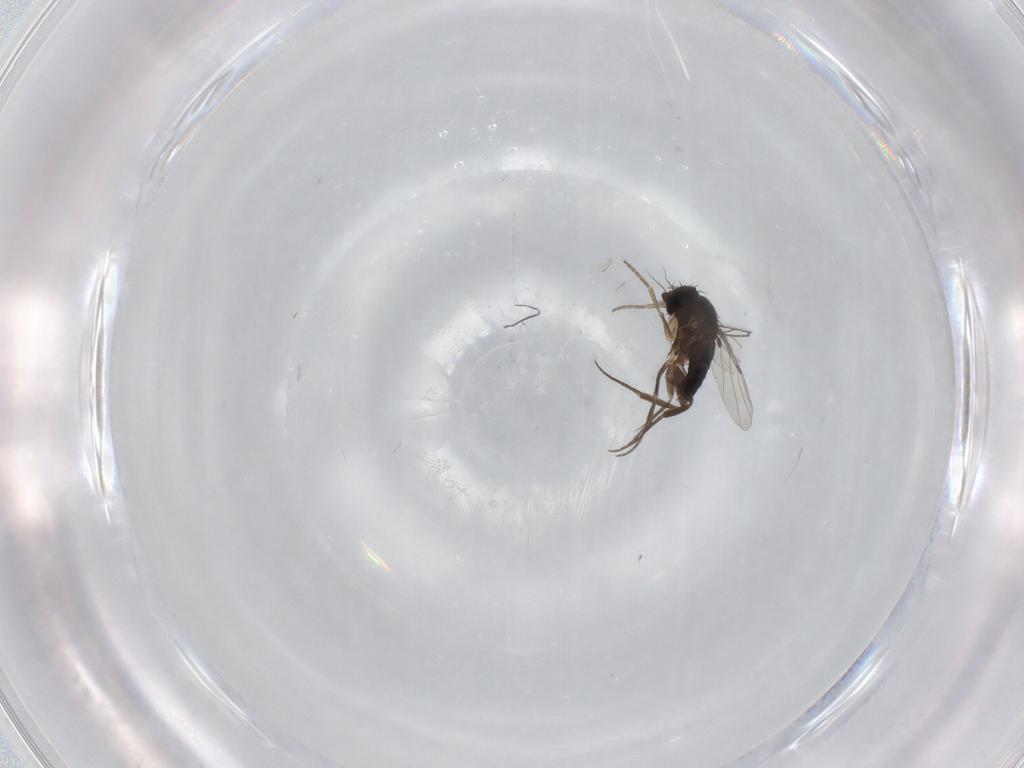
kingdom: Animalia
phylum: Arthropoda
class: Insecta
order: Diptera
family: Phoridae
